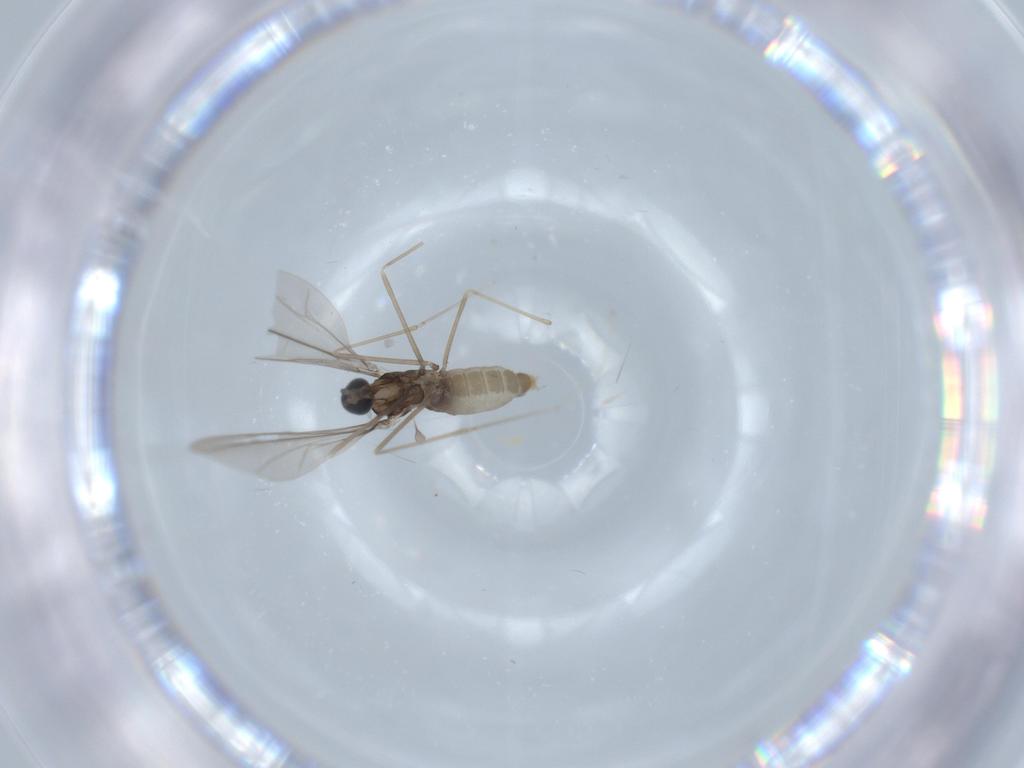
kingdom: Animalia
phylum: Arthropoda
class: Insecta
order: Diptera
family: Cecidomyiidae
